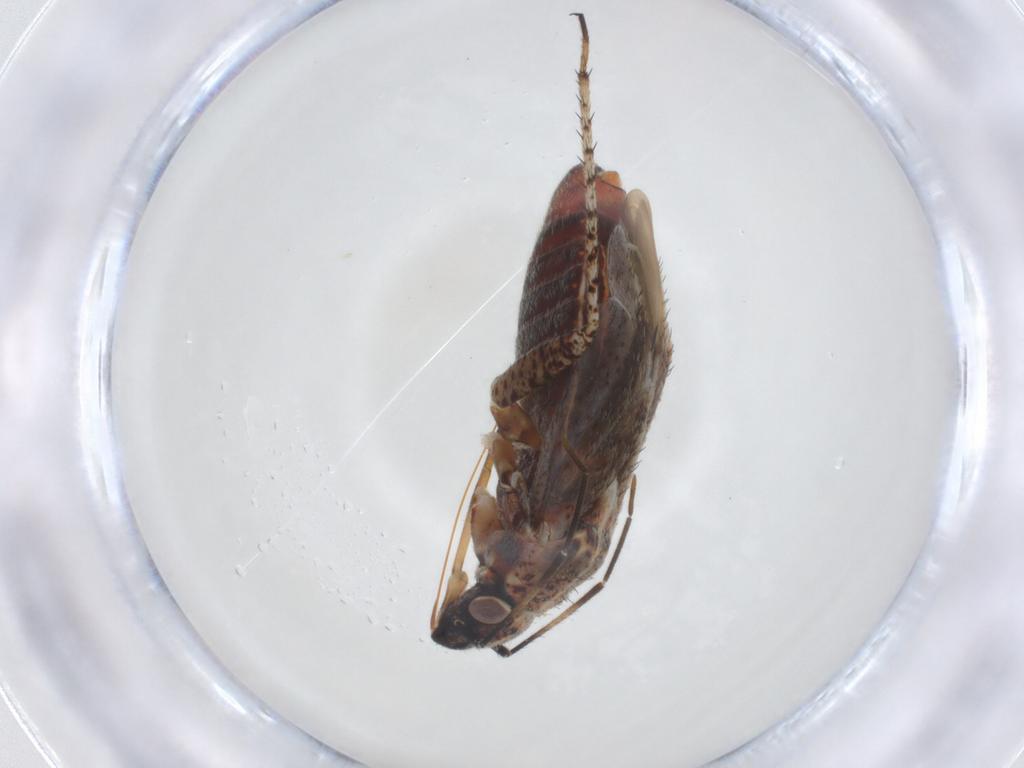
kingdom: Animalia
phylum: Arthropoda
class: Insecta
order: Hemiptera
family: Miridae
